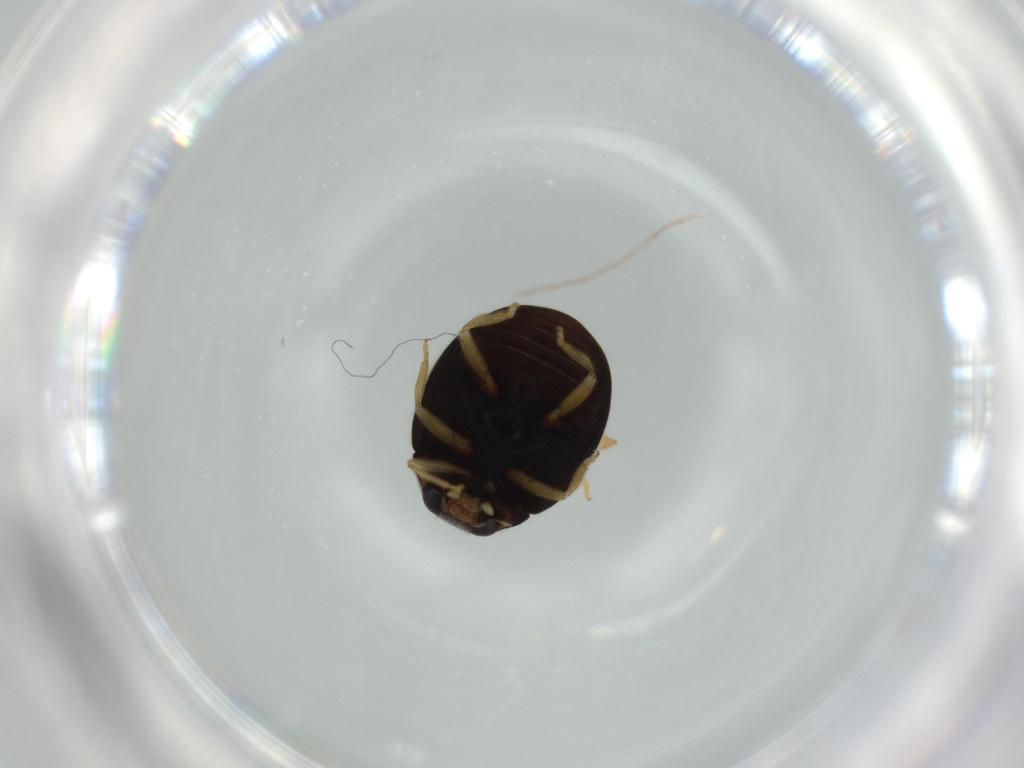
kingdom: Animalia
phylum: Arthropoda
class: Insecta
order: Coleoptera
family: Coccinellidae
